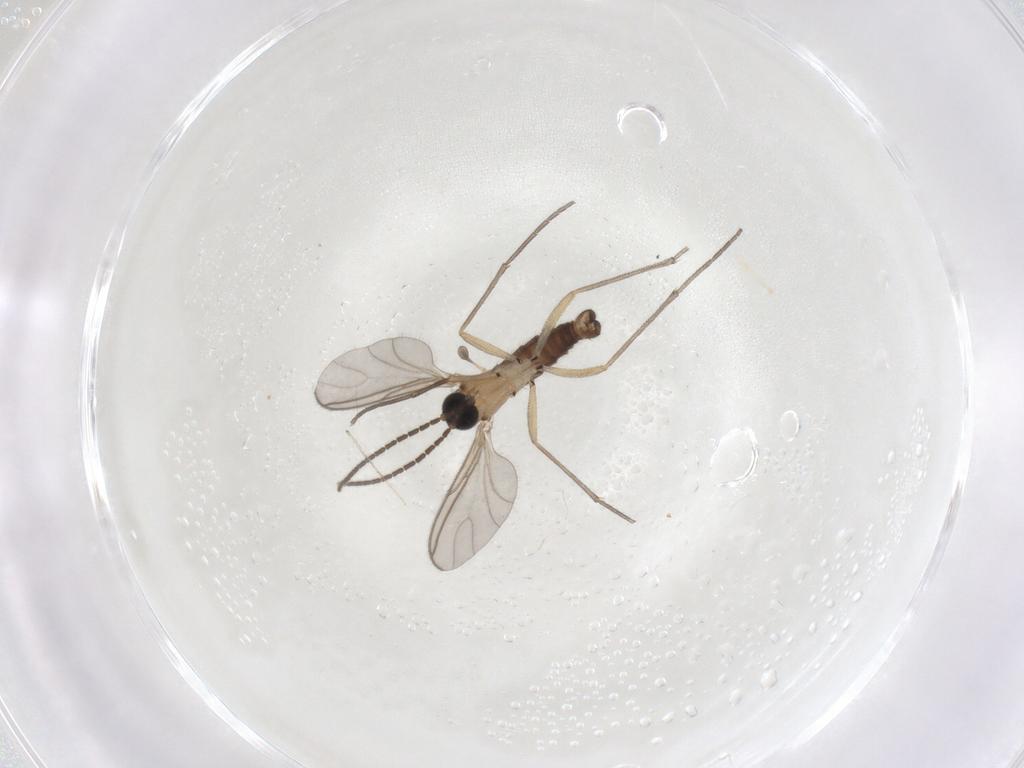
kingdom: Animalia
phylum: Arthropoda
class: Insecta
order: Diptera
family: Sciaridae
